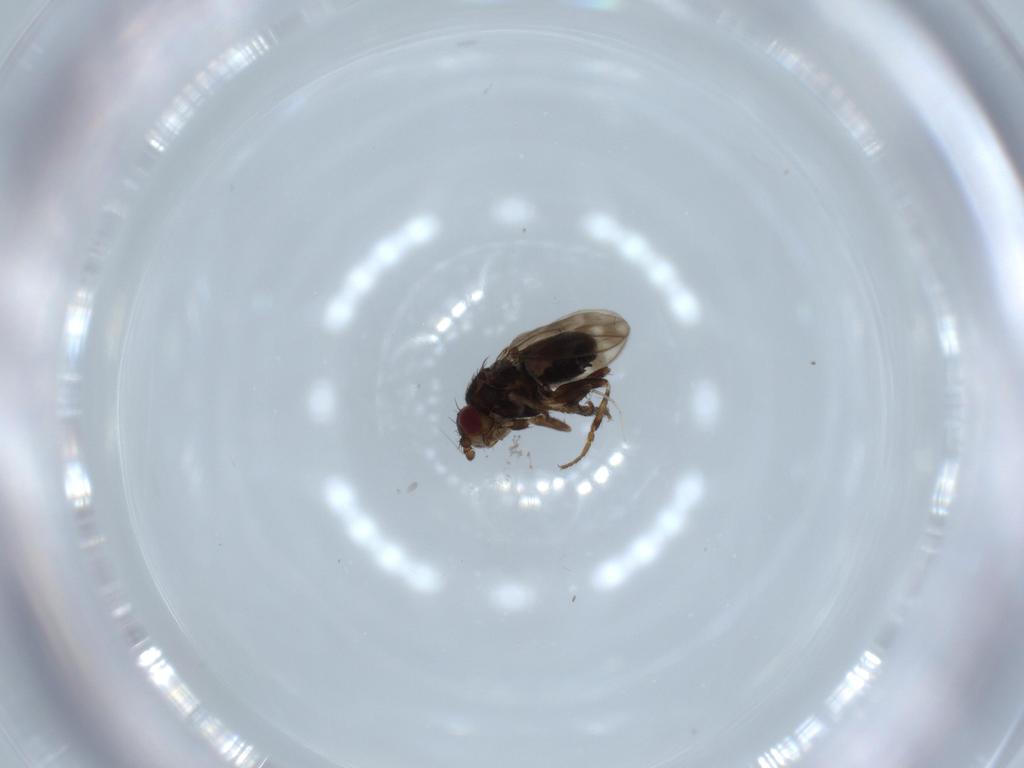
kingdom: Animalia
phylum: Arthropoda
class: Insecta
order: Diptera
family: Sphaeroceridae
